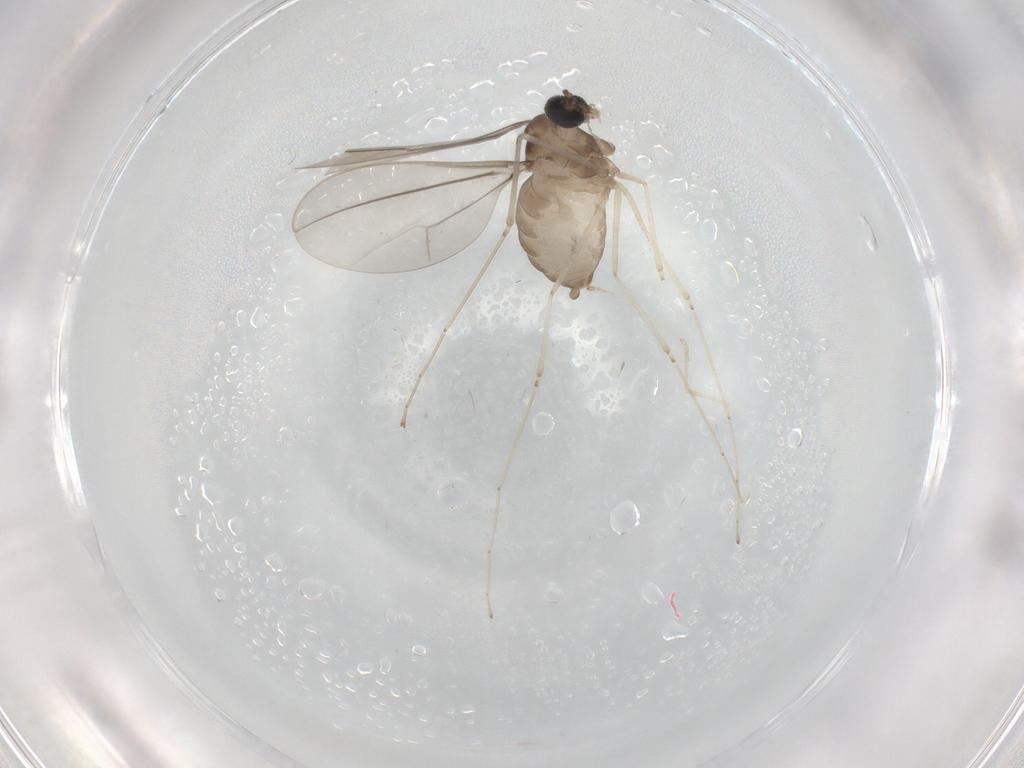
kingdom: Animalia
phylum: Arthropoda
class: Insecta
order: Diptera
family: Cecidomyiidae
